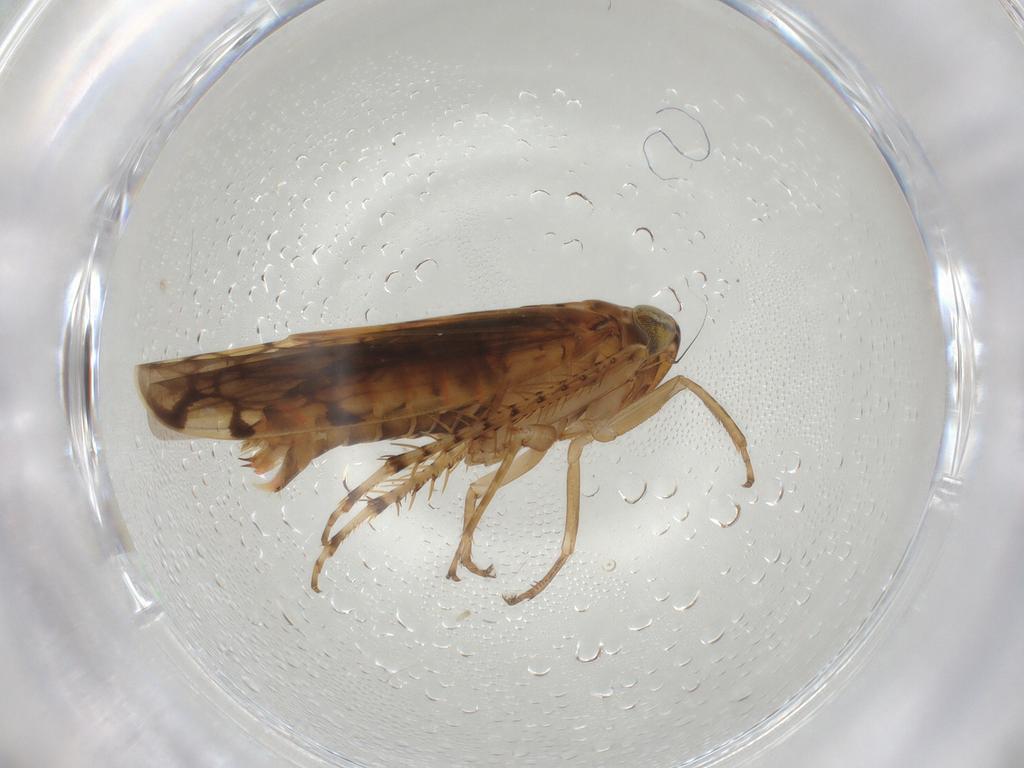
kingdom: Animalia
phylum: Arthropoda
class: Insecta
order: Hemiptera
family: Cicadellidae
